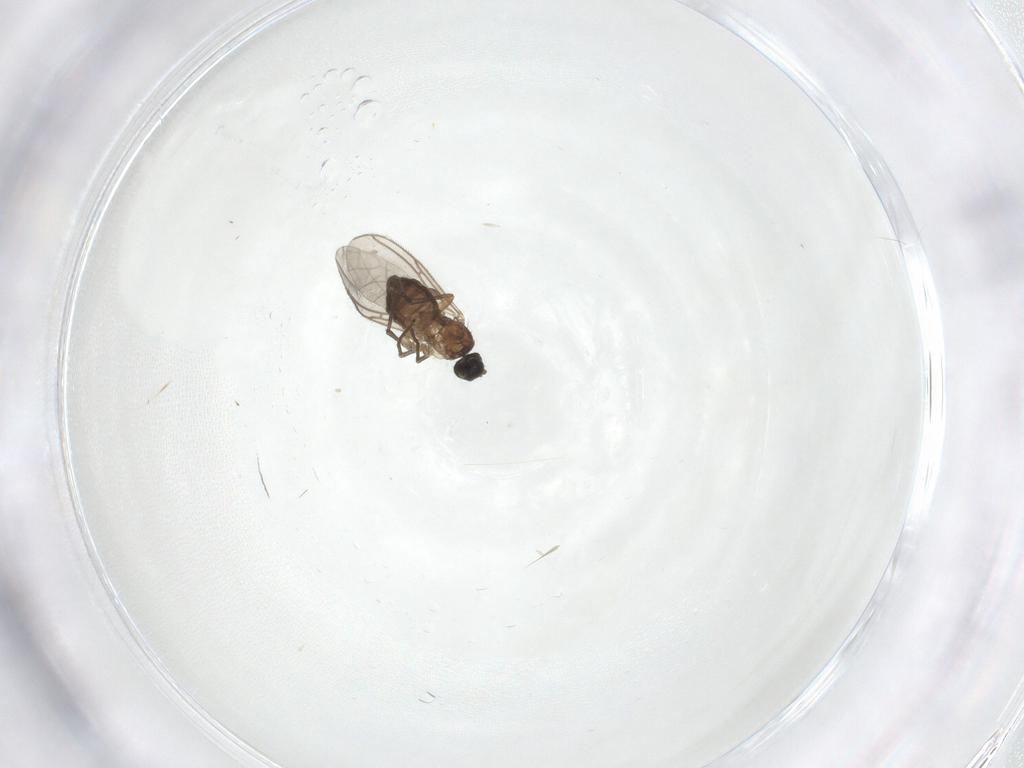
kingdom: Animalia
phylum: Arthropoda
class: Insecta
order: Diptera
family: Sciaridae
